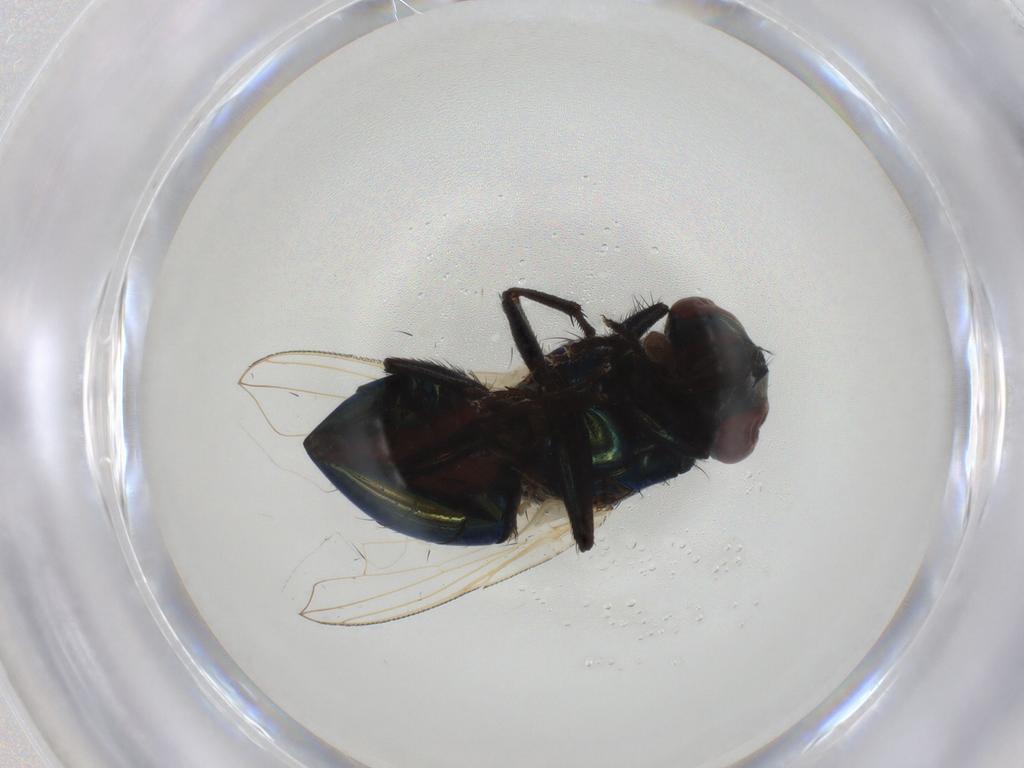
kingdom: Animalia
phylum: Arthropoda
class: Insecta
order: Diptera
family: Muscidae
